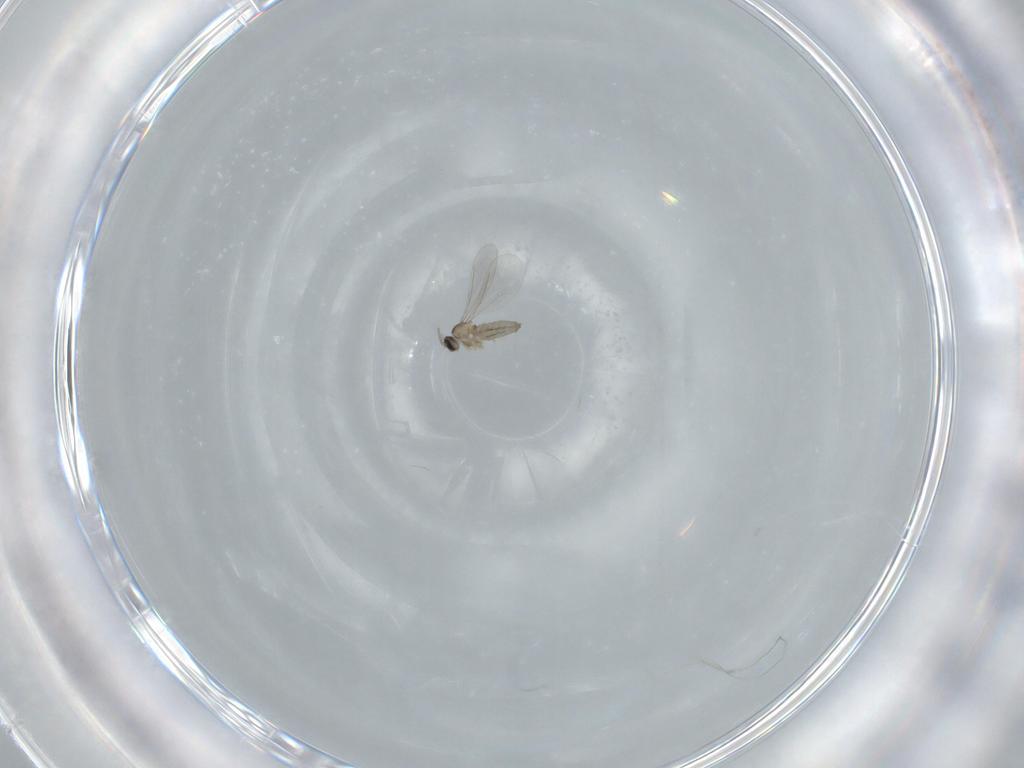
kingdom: Animalia
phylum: Arthropoda
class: Insecta
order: Diptera
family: Cecidomyiidae
